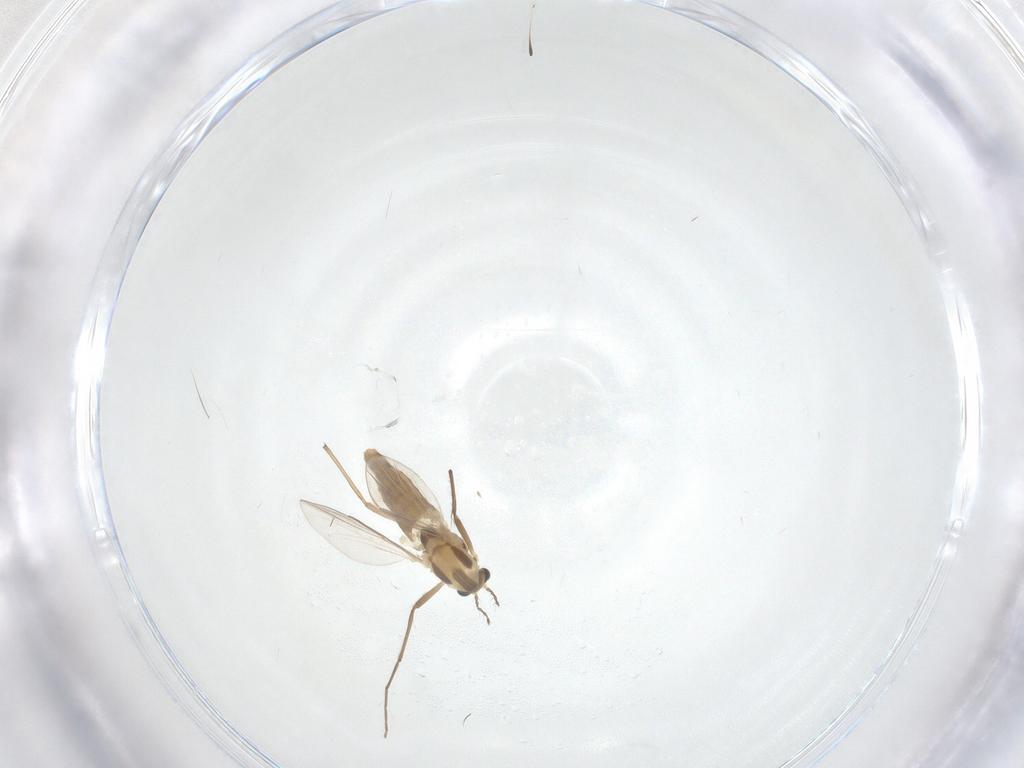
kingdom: Animalia
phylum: Arthropoda
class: Insecta
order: Diptera
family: Chironomidae
